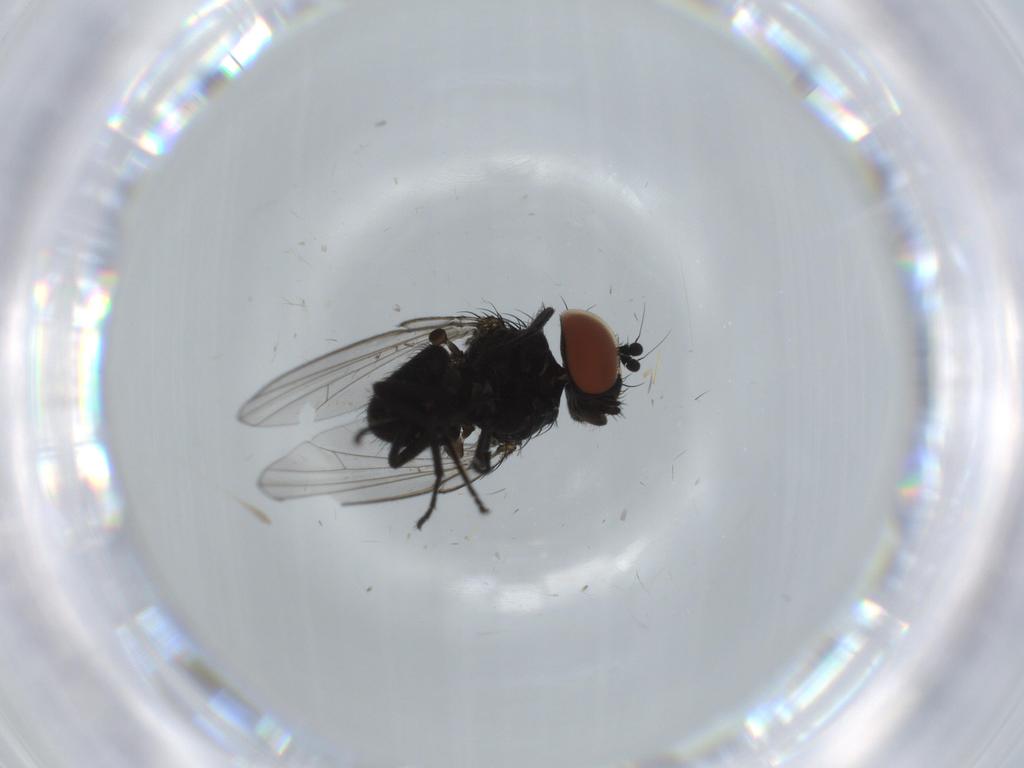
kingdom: Animalia
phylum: Arthropoda
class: Insecta
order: Diptera
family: Milichiidae
